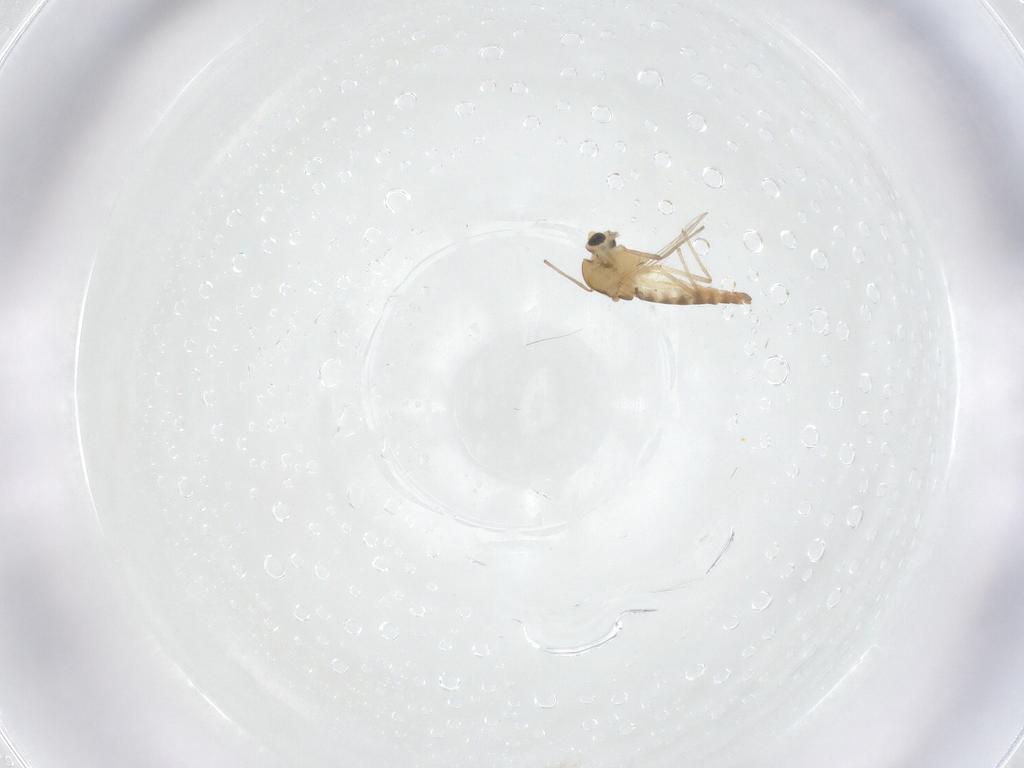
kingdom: Animalia
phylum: Arthropoda
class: Insecta
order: Diptera
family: Chironomidae
